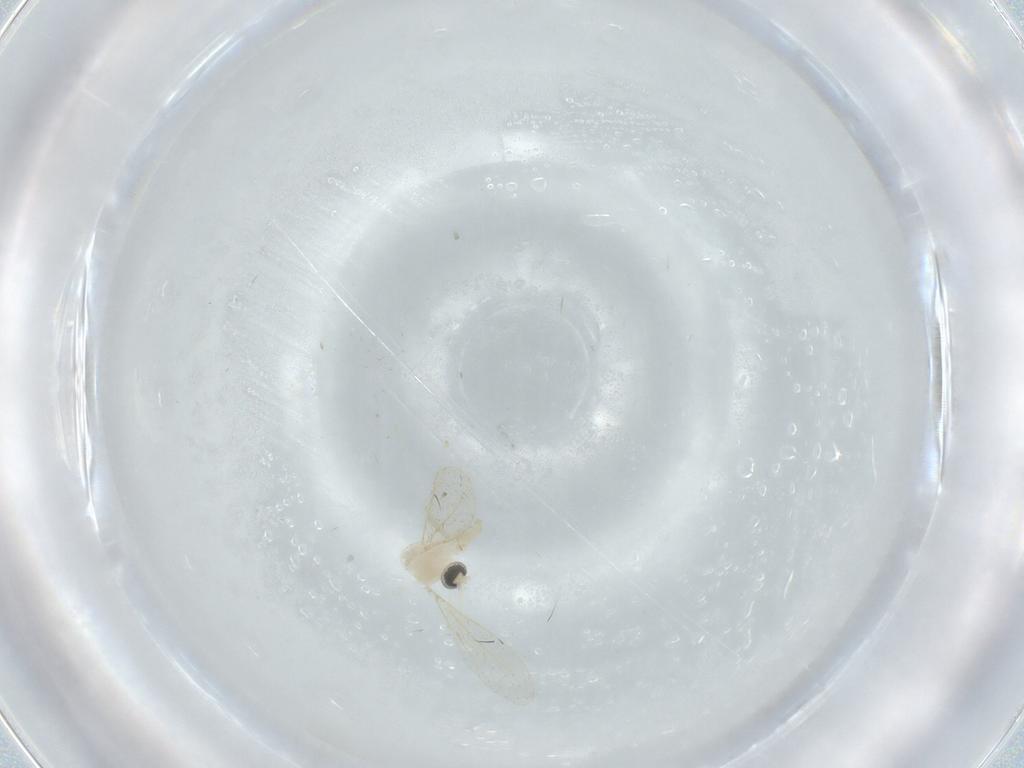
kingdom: Animalia
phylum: Arthropoda
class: Insecta
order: Diptera
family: Cecidomyiidae
